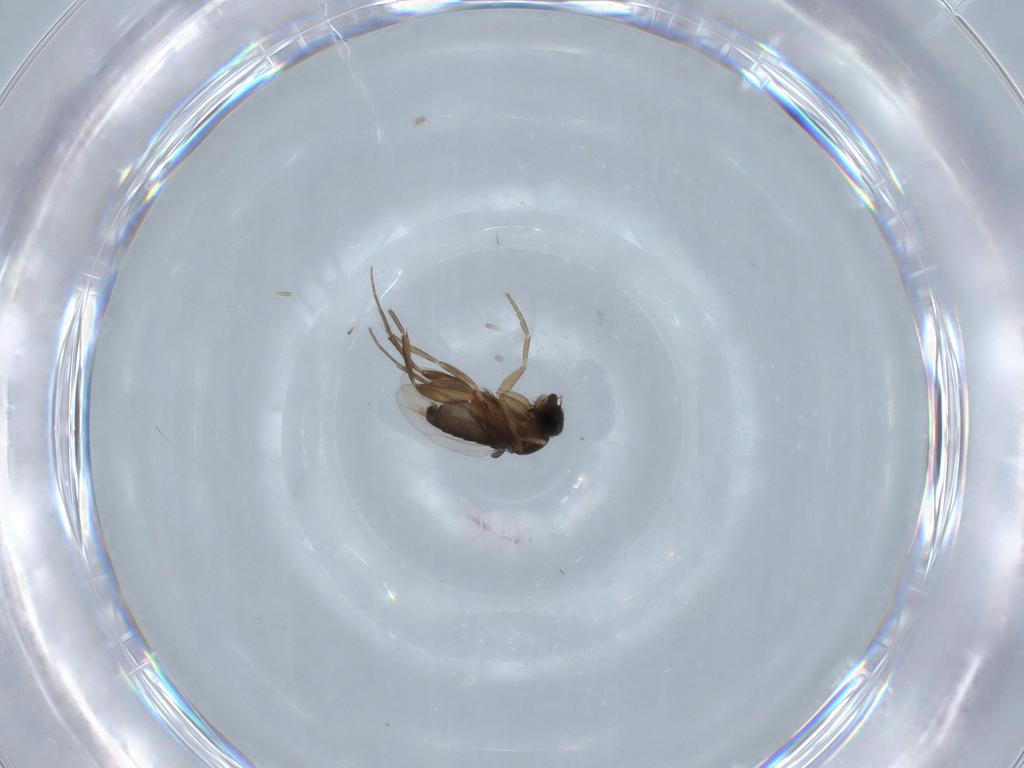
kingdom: Animalia
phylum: Arthropoda
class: Insecta
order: Diptera
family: Phoridae
